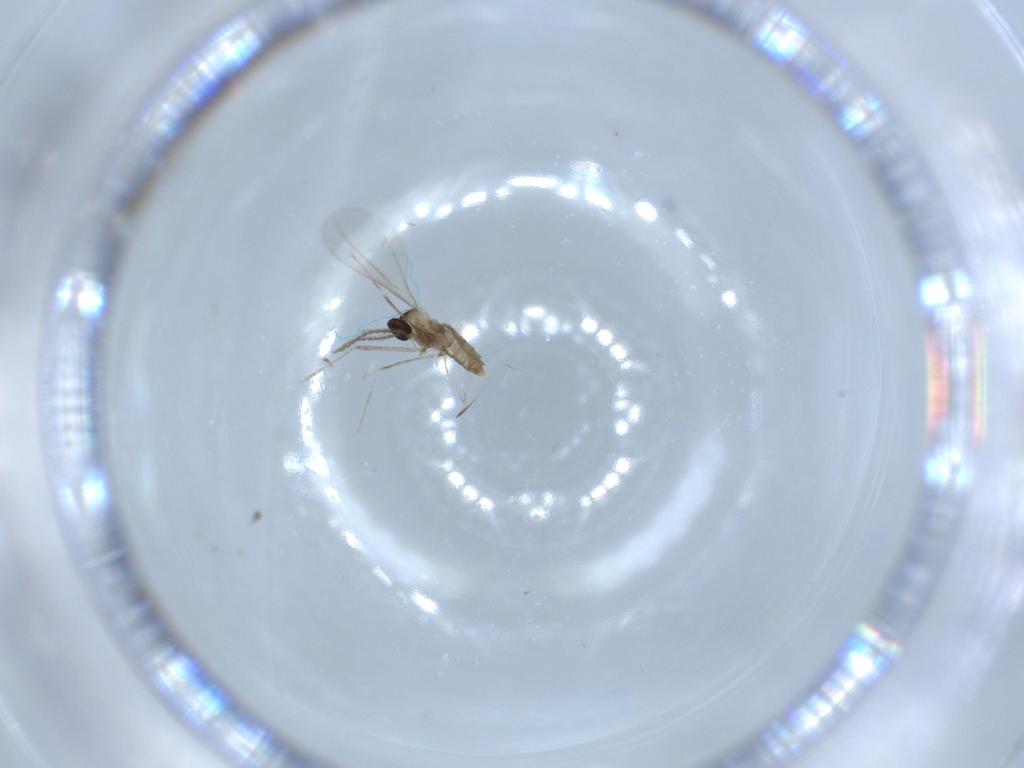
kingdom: Animalia
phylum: Arthropoda
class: Insecta
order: Diptera
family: Cecidomyiidae
